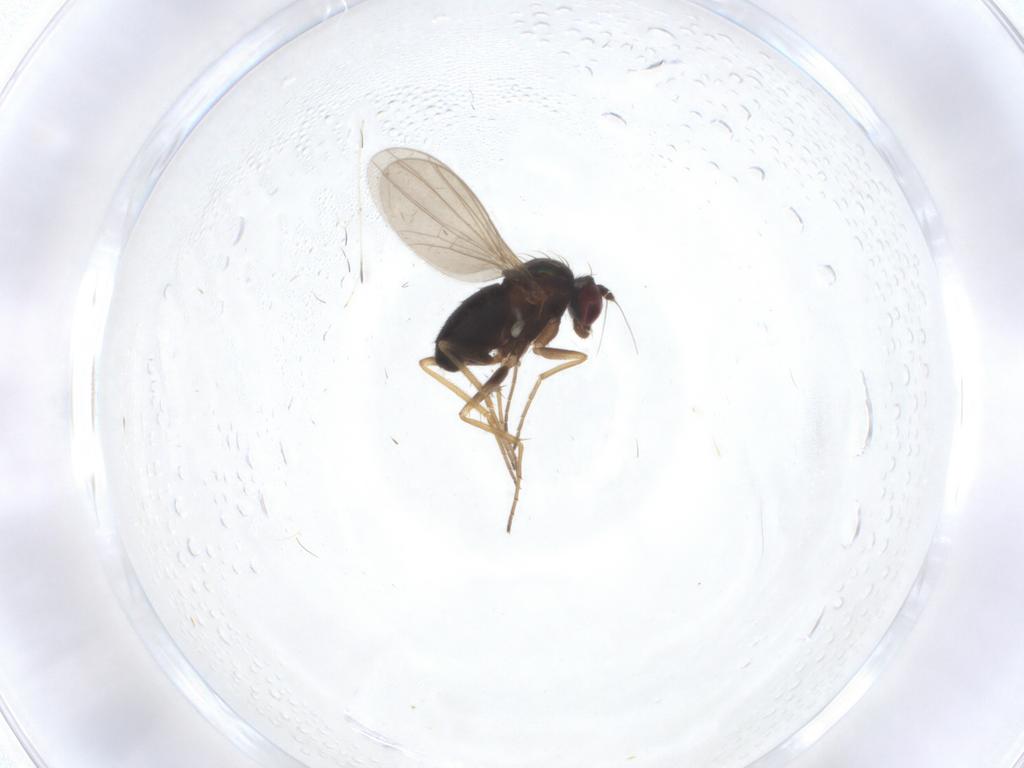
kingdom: Animalia
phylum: Arthropoda
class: Insecta
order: Diptera
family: Dolichopodidae
